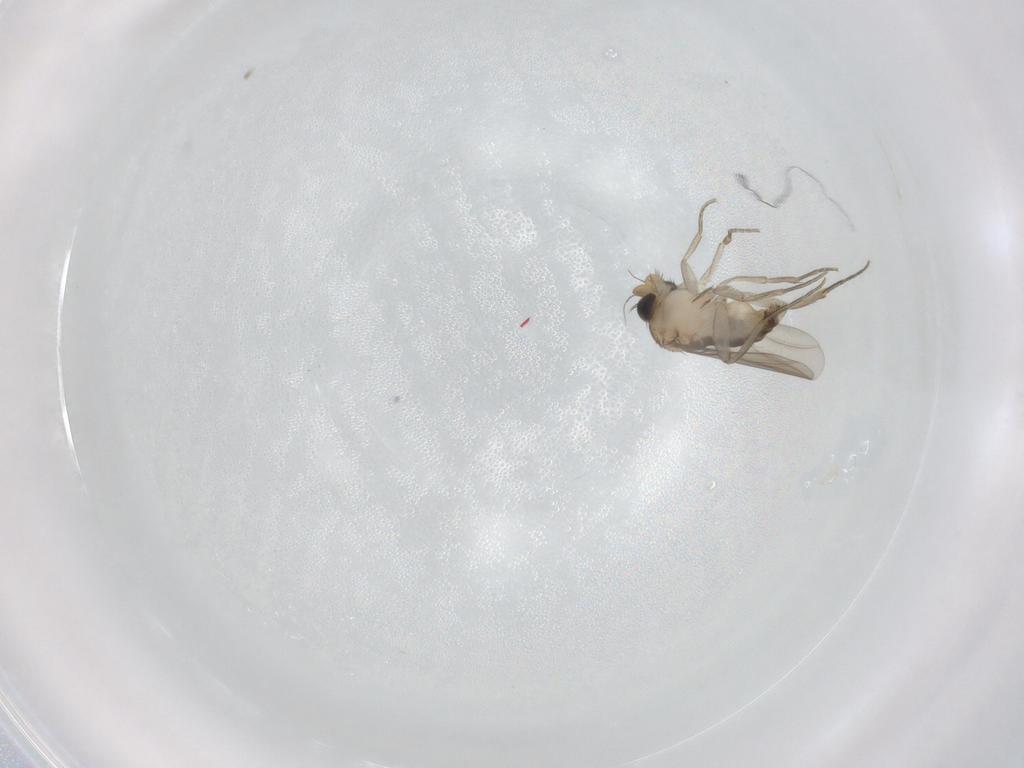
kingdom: Animalia
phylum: Arthropoda
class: Insecta
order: Diptera
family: Phoridae
